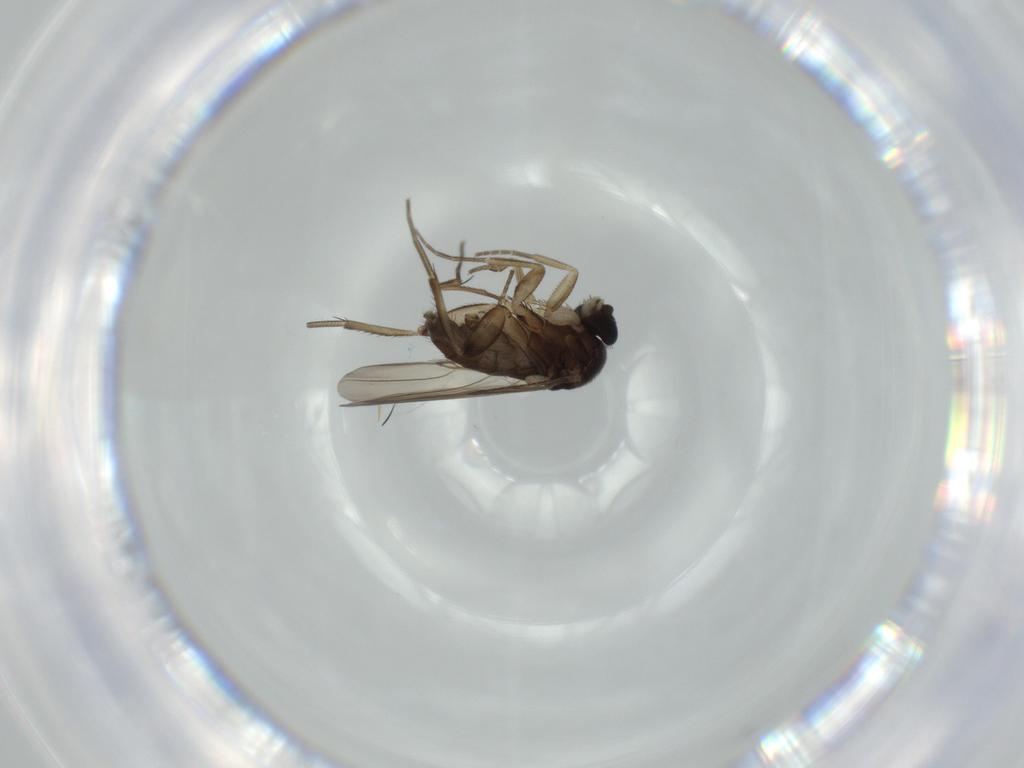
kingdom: Animalia
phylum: Arthropoda
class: Insecta
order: Diptera
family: Phoridae
